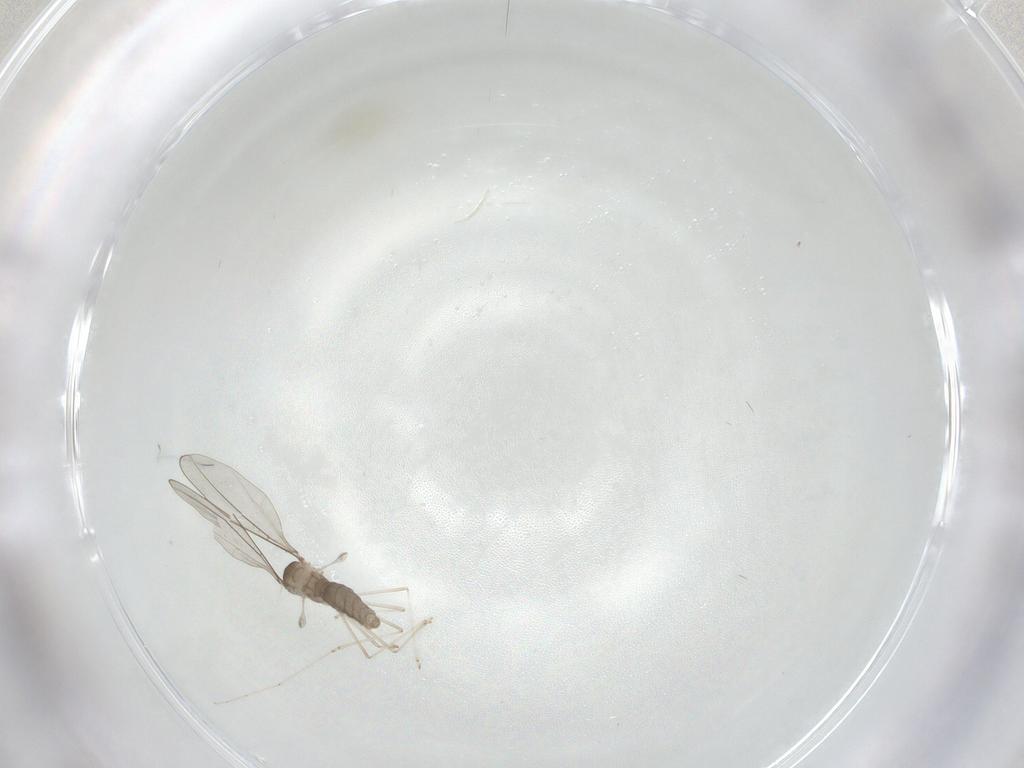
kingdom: Animalia
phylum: Arthropoda
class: Insecta
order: Diptera
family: Cecidomyiidae
